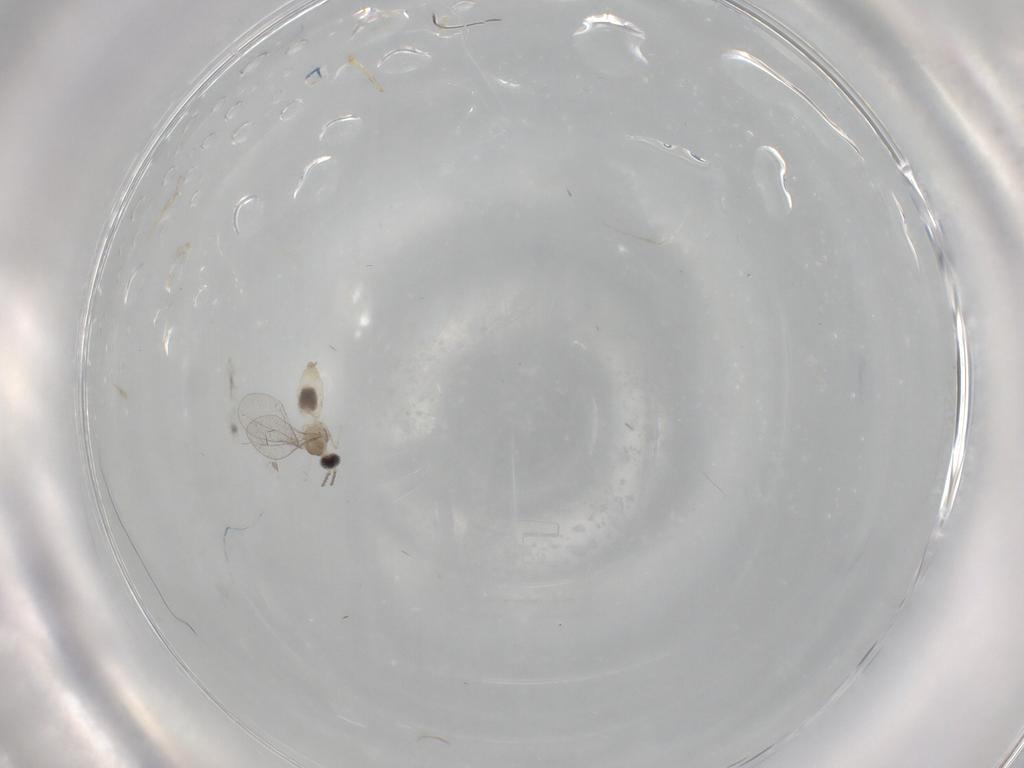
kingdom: Animalia
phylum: Arthropoda
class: Insecta
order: Diptera
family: Cecidomyiidae
